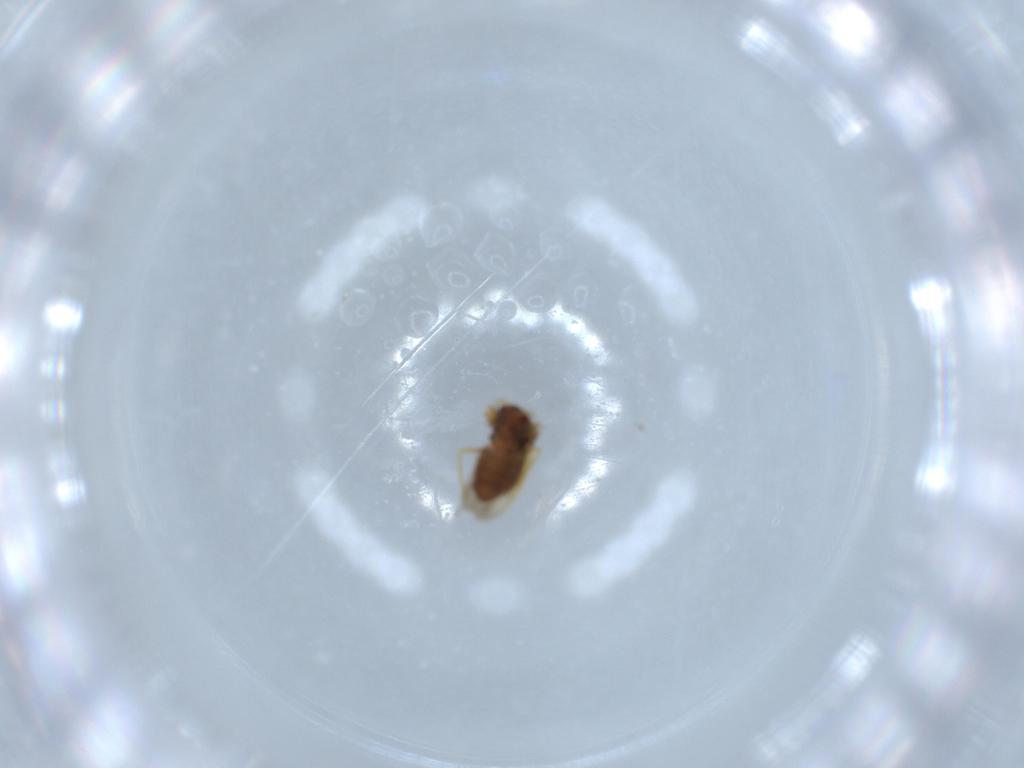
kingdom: Animalia
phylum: Arthropoda
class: Insecta
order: Hemiptera
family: Schizopteridae
